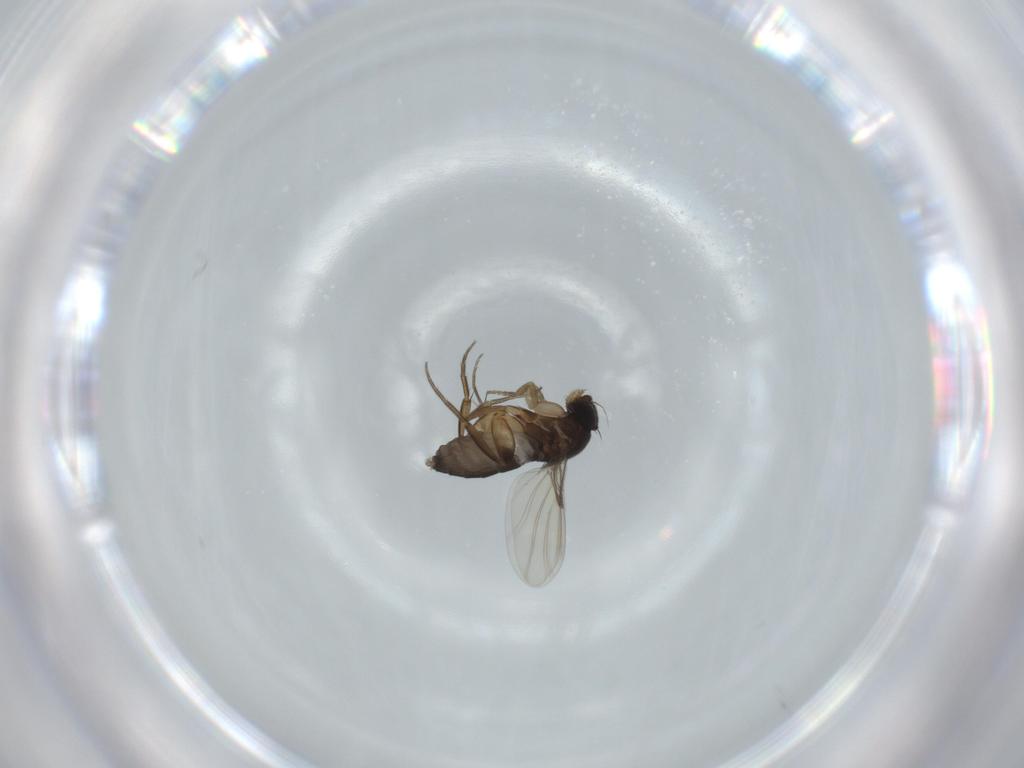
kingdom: Animalia
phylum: Arthropoda
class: Insecta
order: Diptera
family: Phoridae
